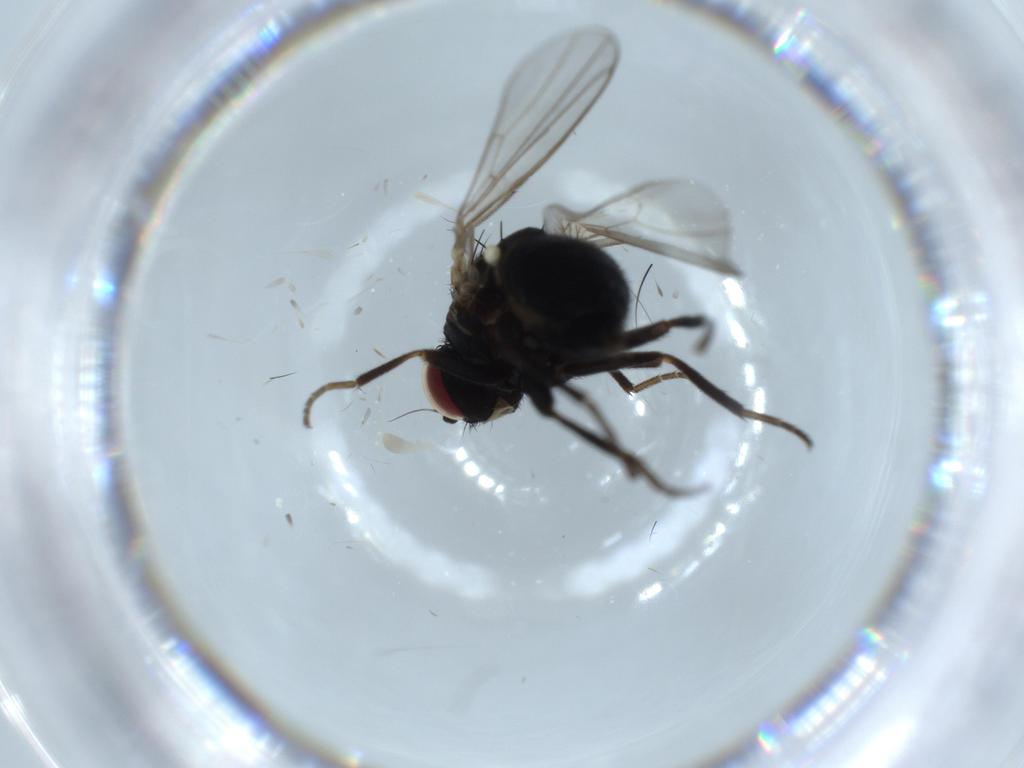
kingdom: Animalia
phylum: Arthropoda
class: Insecta
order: Diptera
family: Agromyzidae
